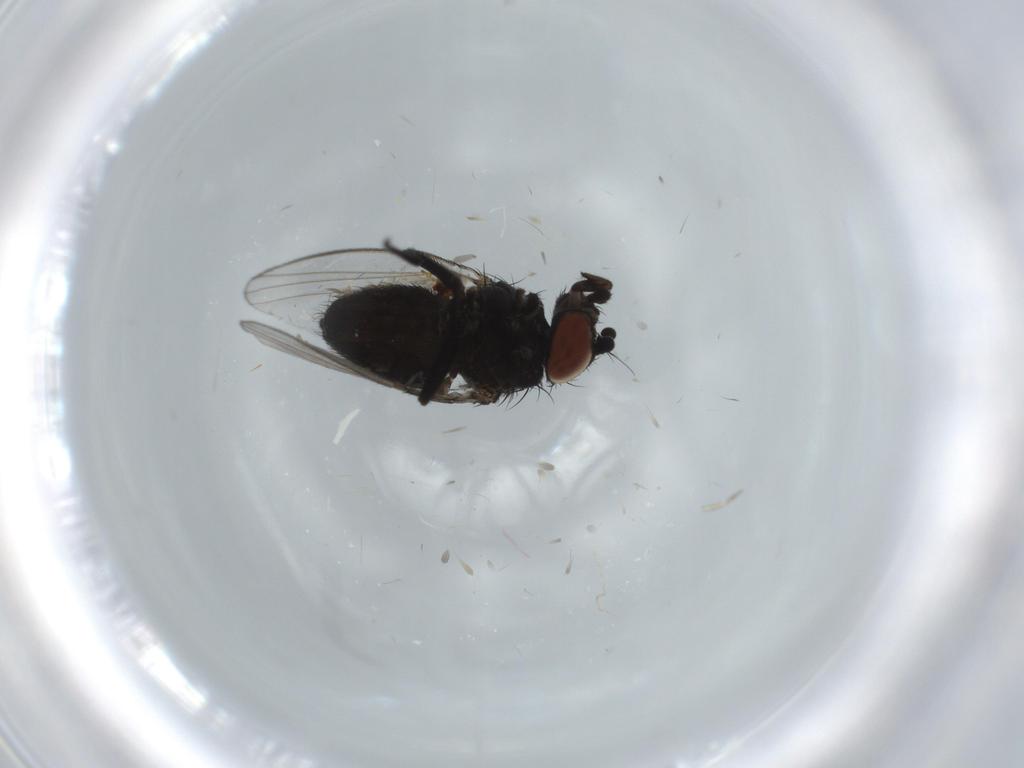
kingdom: Animalia
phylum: Arthropoda
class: Insecta
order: Diptera
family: Milichiidae
